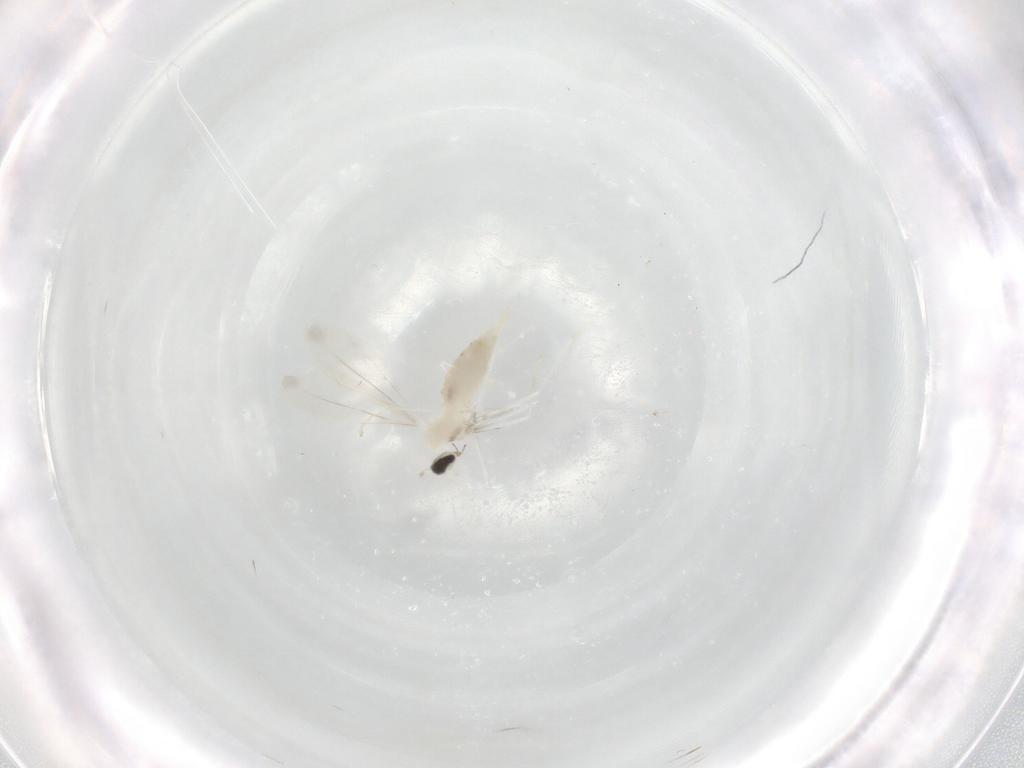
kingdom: Animalia
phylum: Arthropoda
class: Insecta
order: Diptera
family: Cecidomyiidae
